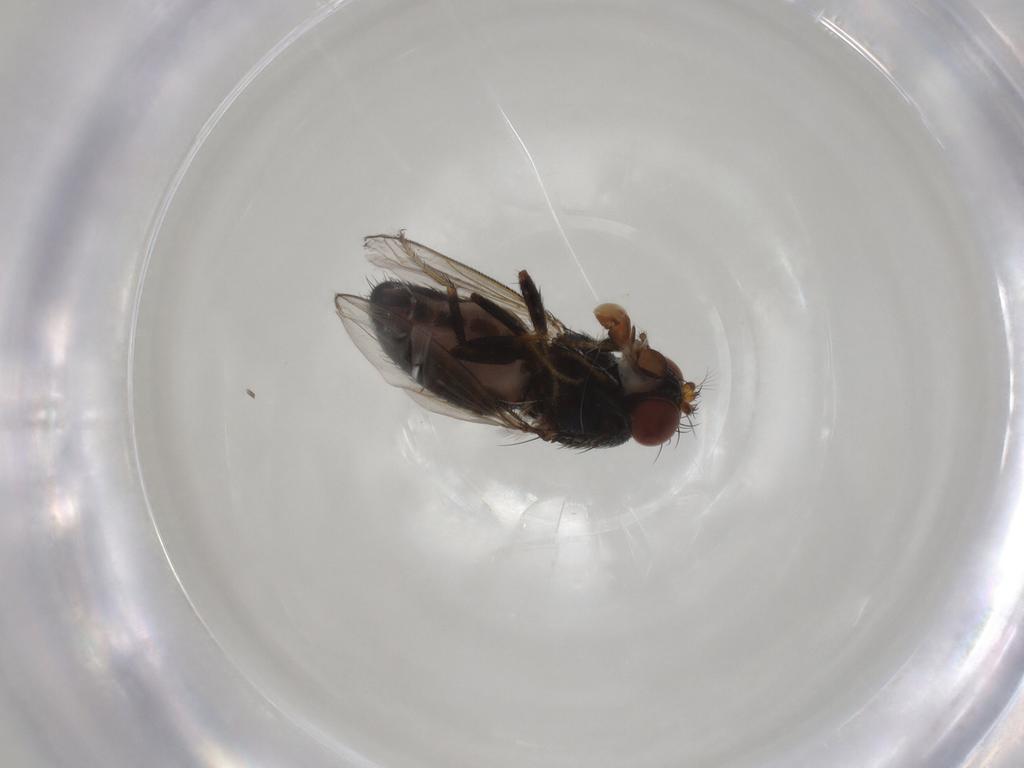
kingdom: Animalia
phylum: Arthropoda
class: Insecta
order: Diptera
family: Ephydridae
